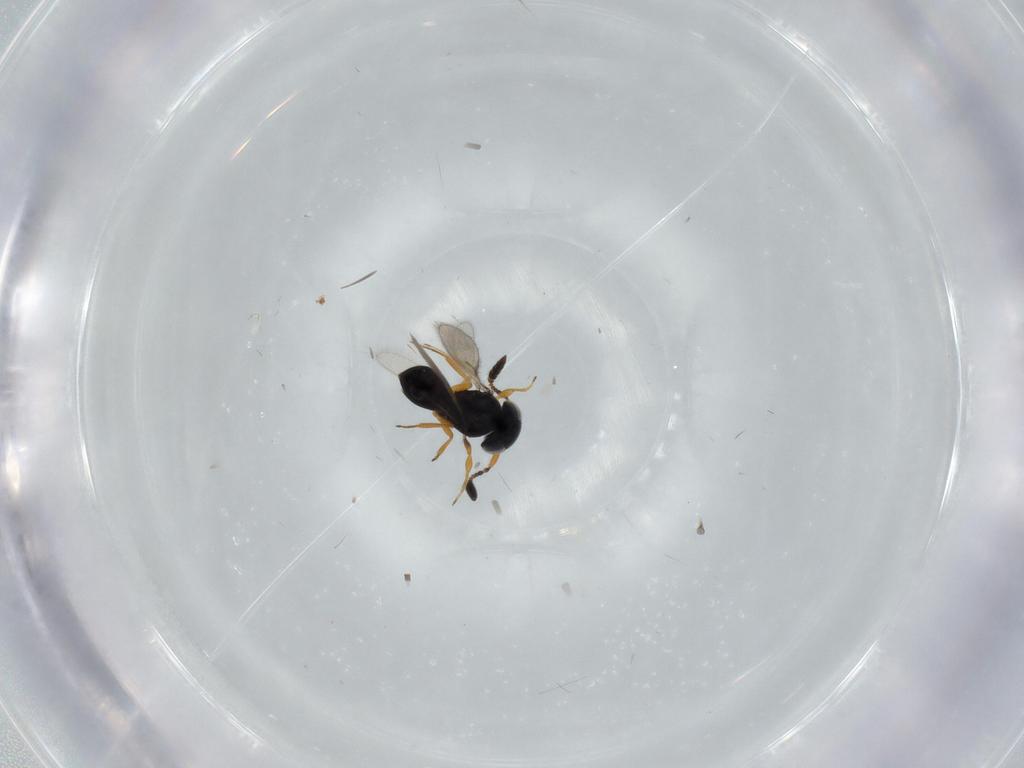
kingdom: Animalia
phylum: Arthropoda
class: Insecta
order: Hymenoptera
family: Scelionidae
